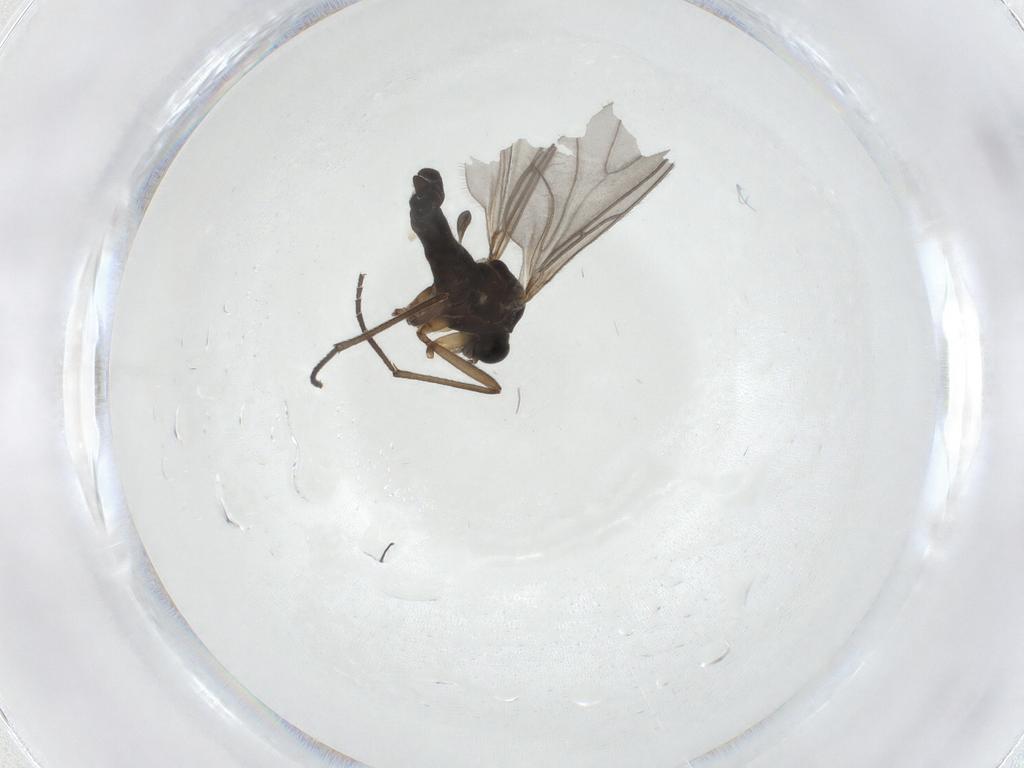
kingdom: Animalia
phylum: Arthropoda
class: Insecta
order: Diptera
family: Sciaridae
